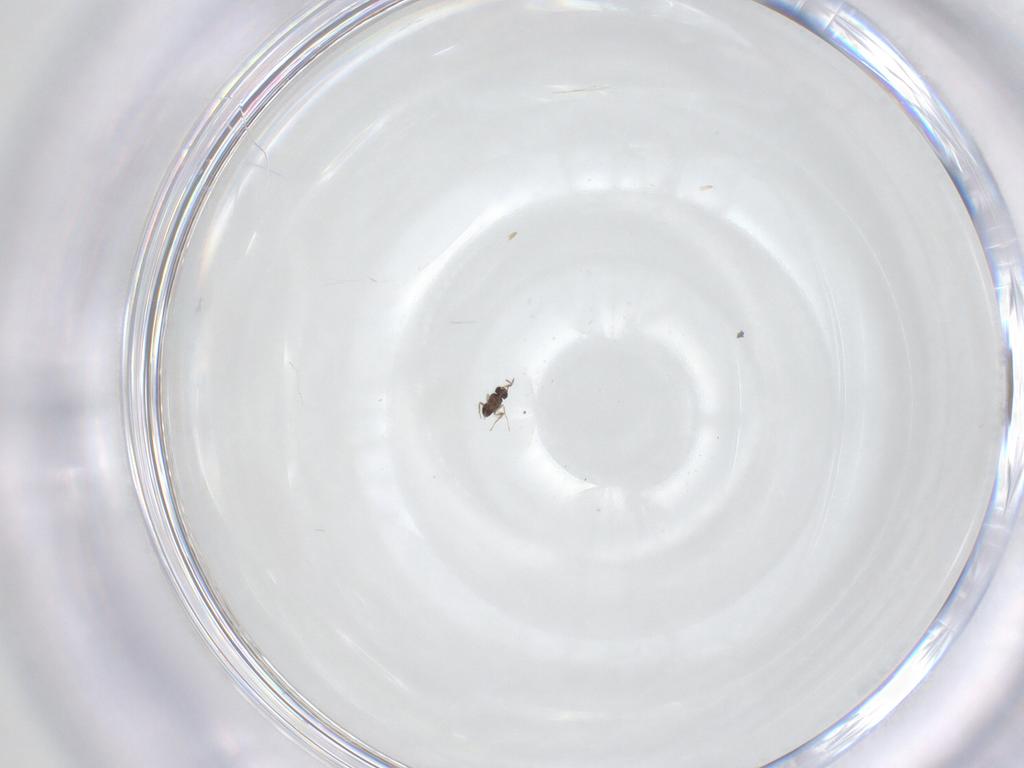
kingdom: Animalia
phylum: Arthropoda
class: Insecta
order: Hymenoptera
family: Mymaridae
